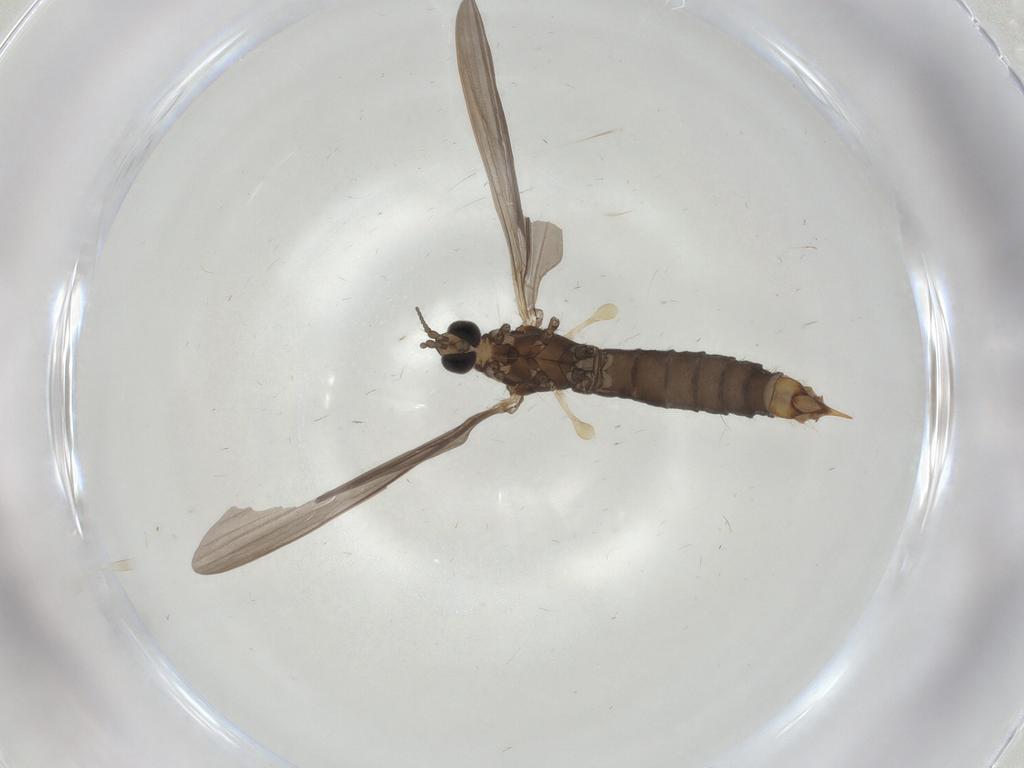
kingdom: Animalia
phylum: Arthropoda
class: Insecta
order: Diptera
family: Limoniidae
